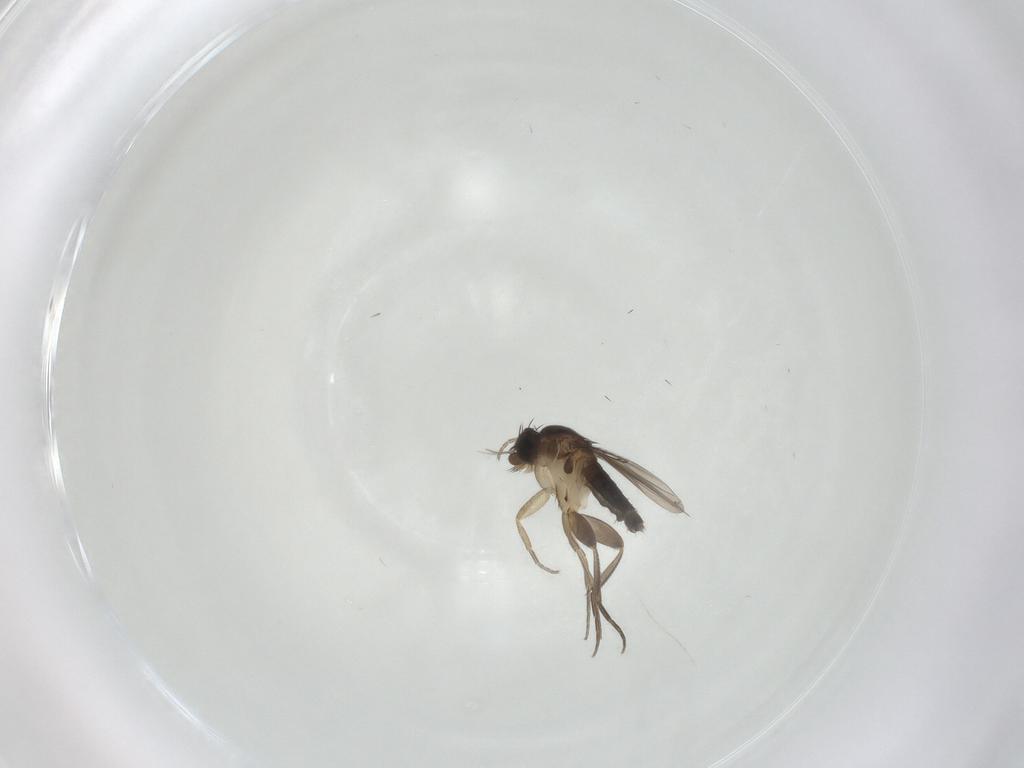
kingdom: Animalia
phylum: Arthropoda
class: Insecta
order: Diptera
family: Phoridae
